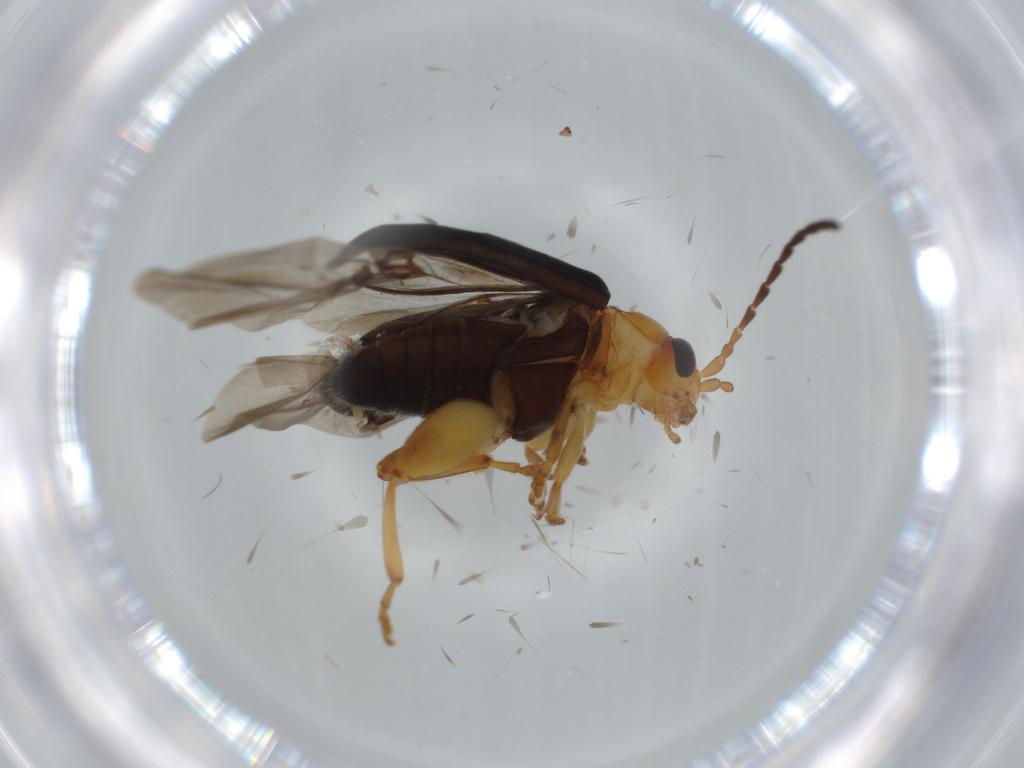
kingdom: Animalia
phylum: Arthropoda
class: Insecta
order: Coleoptera
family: Chrysomelidae
